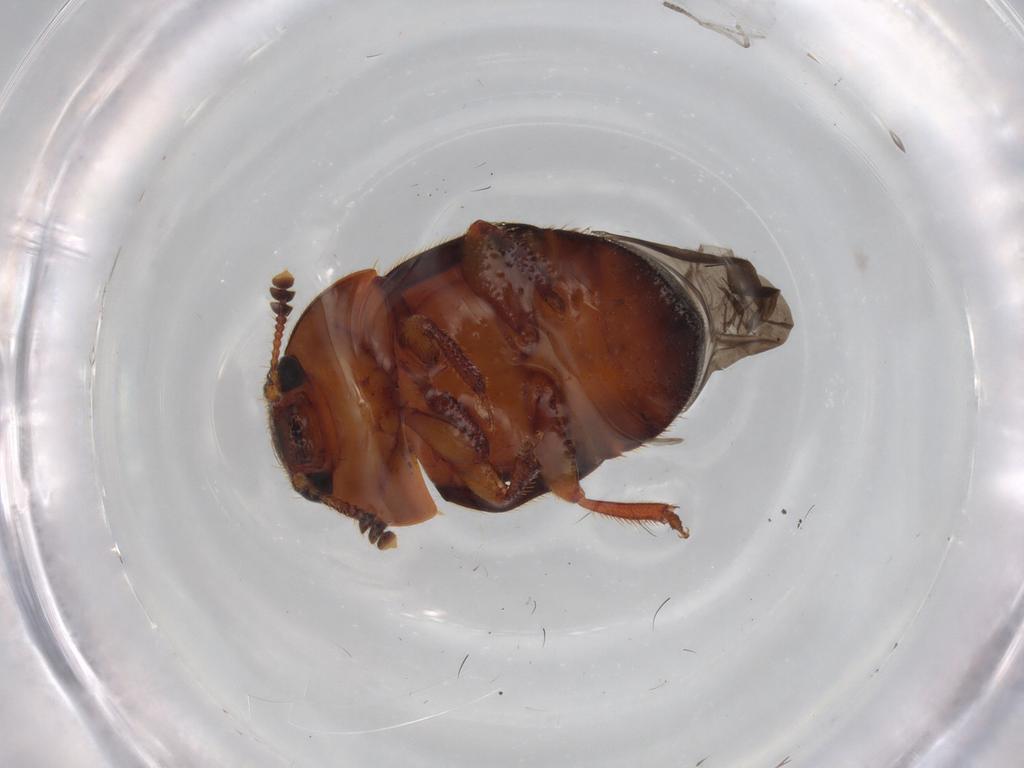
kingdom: Animalia
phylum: Arthropoda
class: Insecta
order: Coleoptera
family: Nitidulidae
